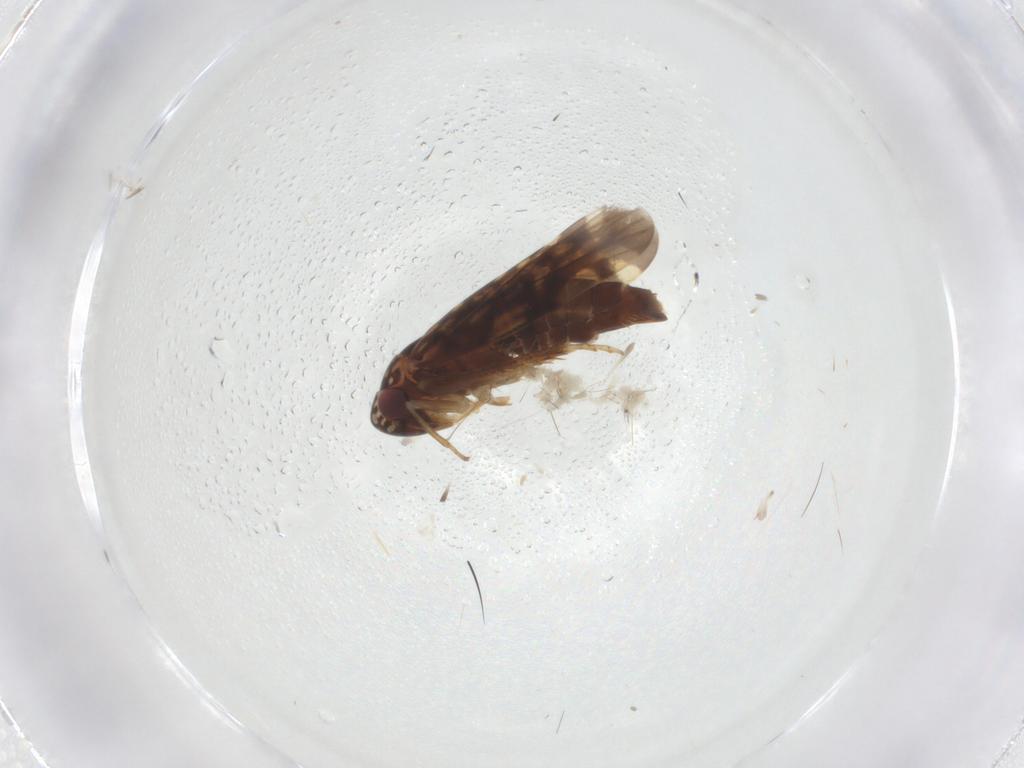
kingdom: Animalia
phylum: Arthropoda
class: Insecta
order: Hemiptera
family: Cicadellidae
